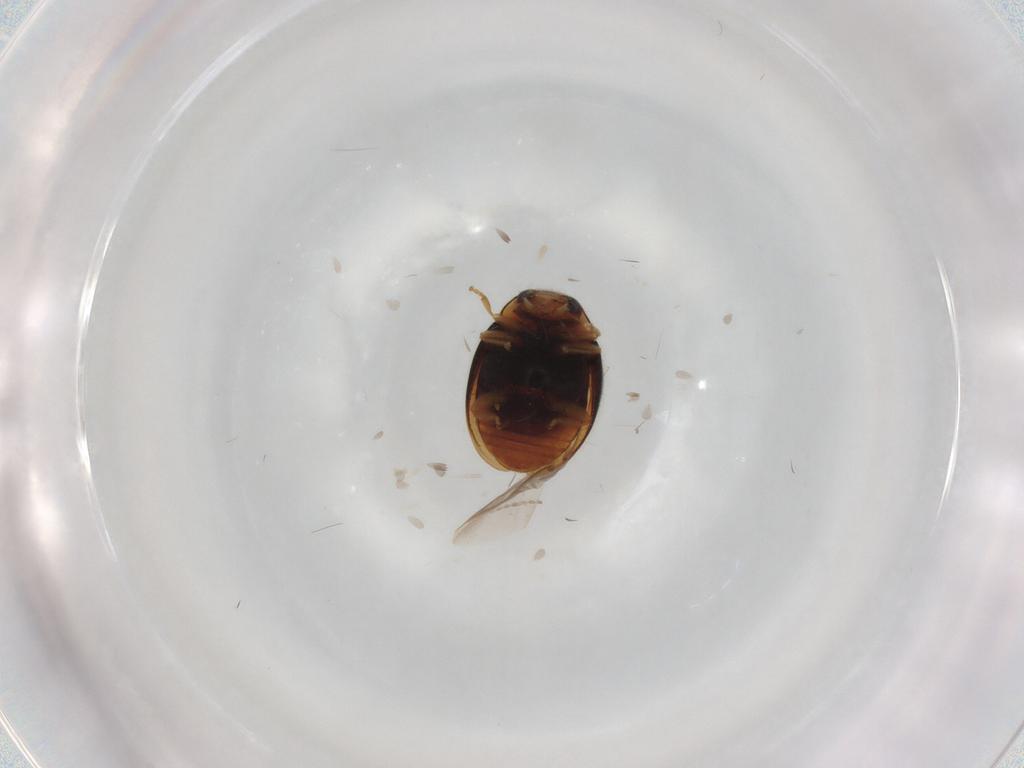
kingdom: Animalia
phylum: Arthropoda
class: Insecta
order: Coleoptera
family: Coccinellidae
